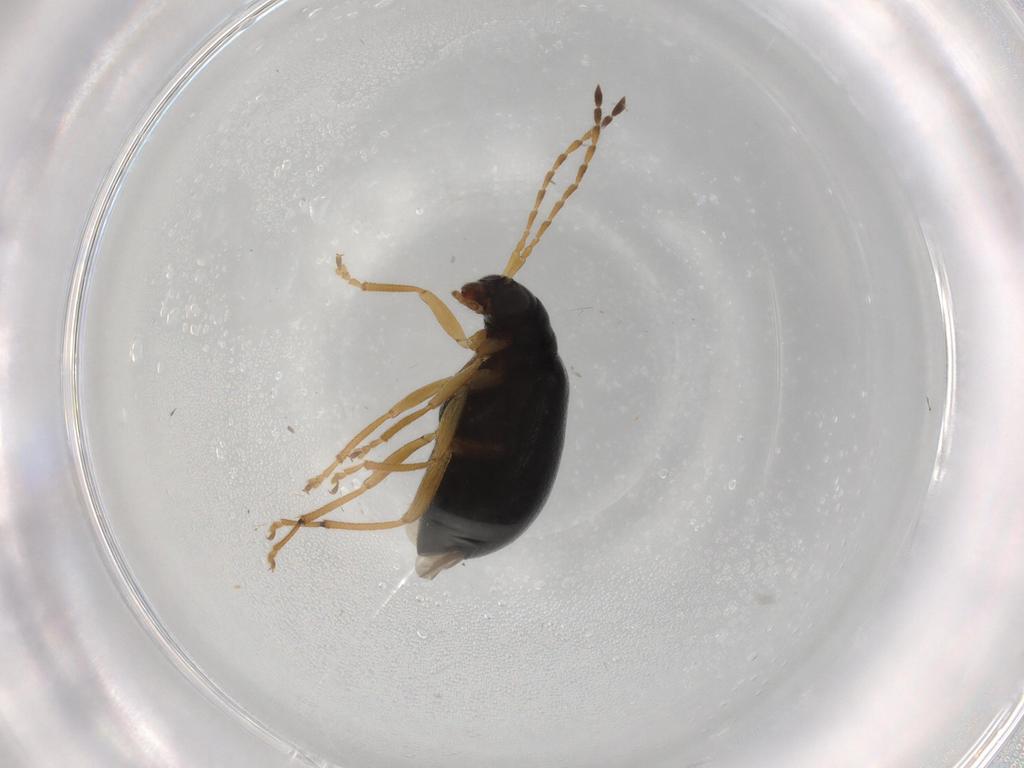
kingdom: Animalia
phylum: Arthropoda
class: Insecta
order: Coleoptera
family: Chrysomelidae
